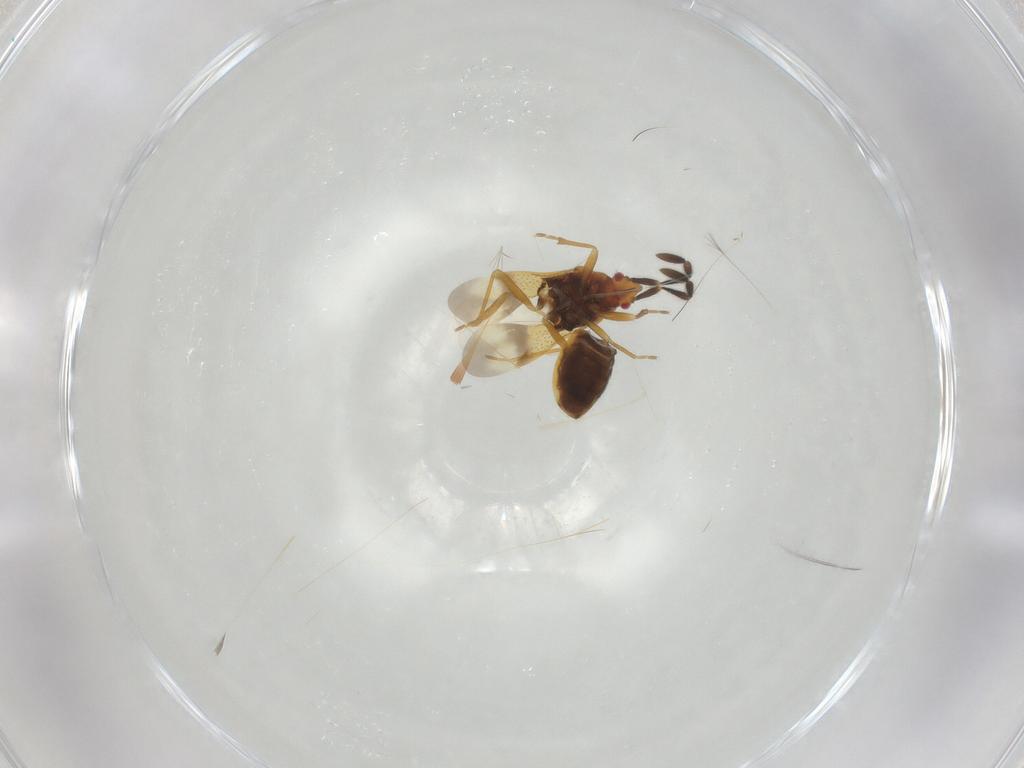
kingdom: Animalia
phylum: Arthropoda
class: Insecta
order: Hemiptera
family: Rhyparochromidae
